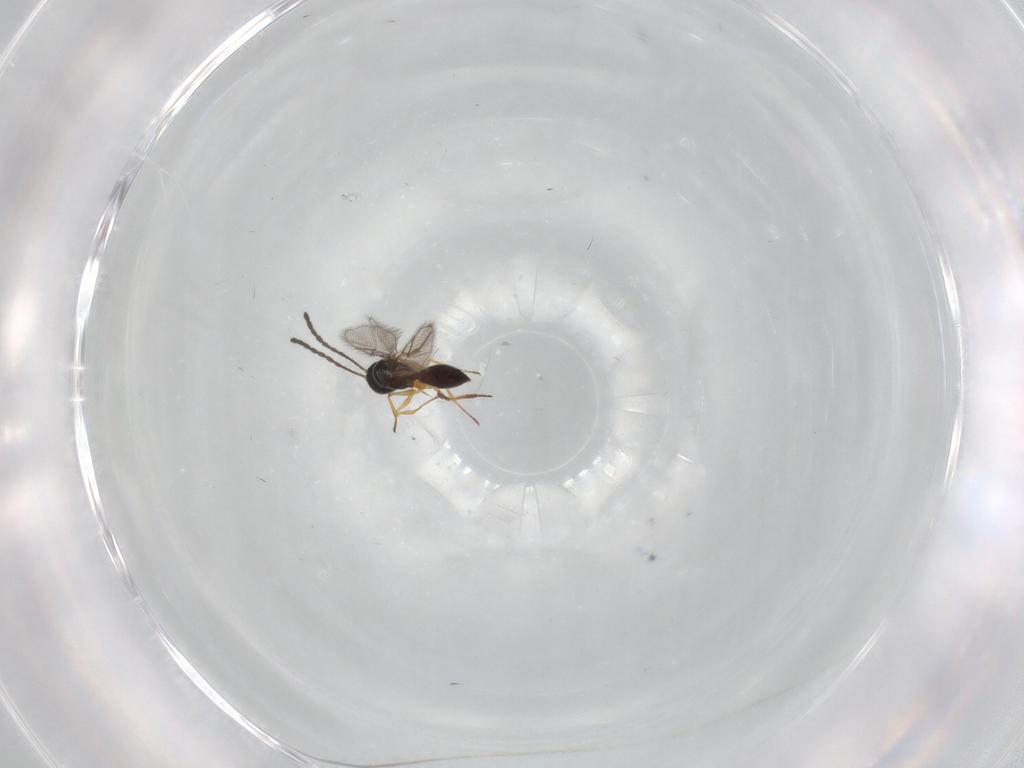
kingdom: Animalia
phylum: Arthropoda
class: Insecta
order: Hymenoptera
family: Figitidae
